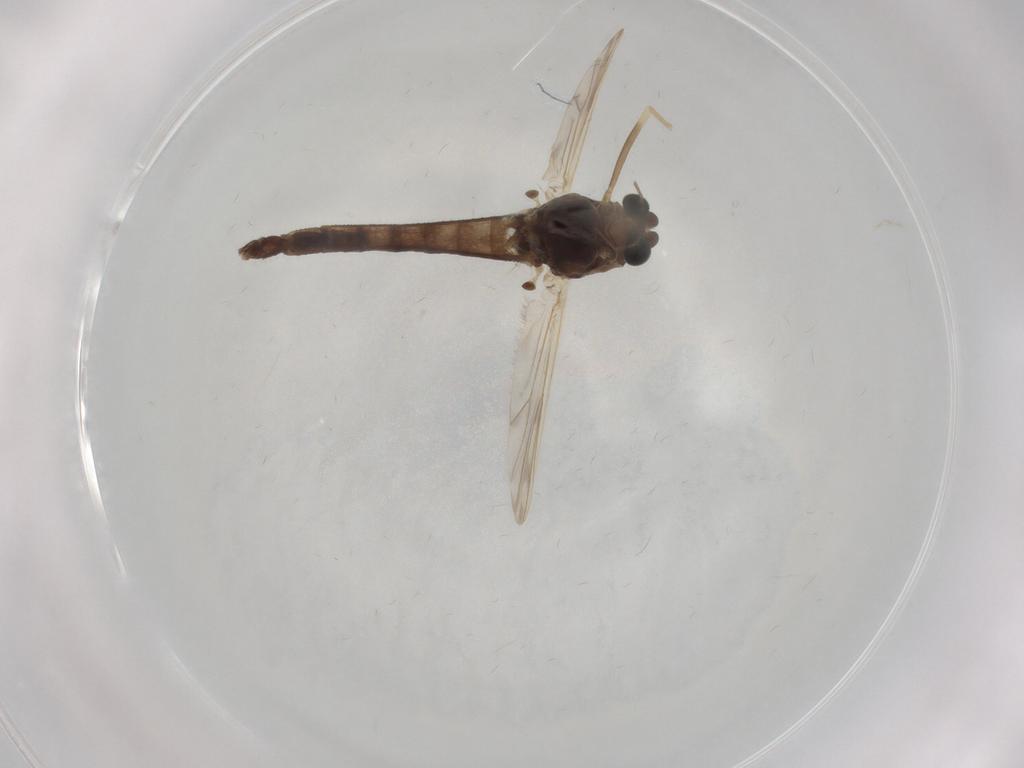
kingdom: Animalia
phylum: Arthropoda
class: Insecta
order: Diptera
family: Chironomidae
